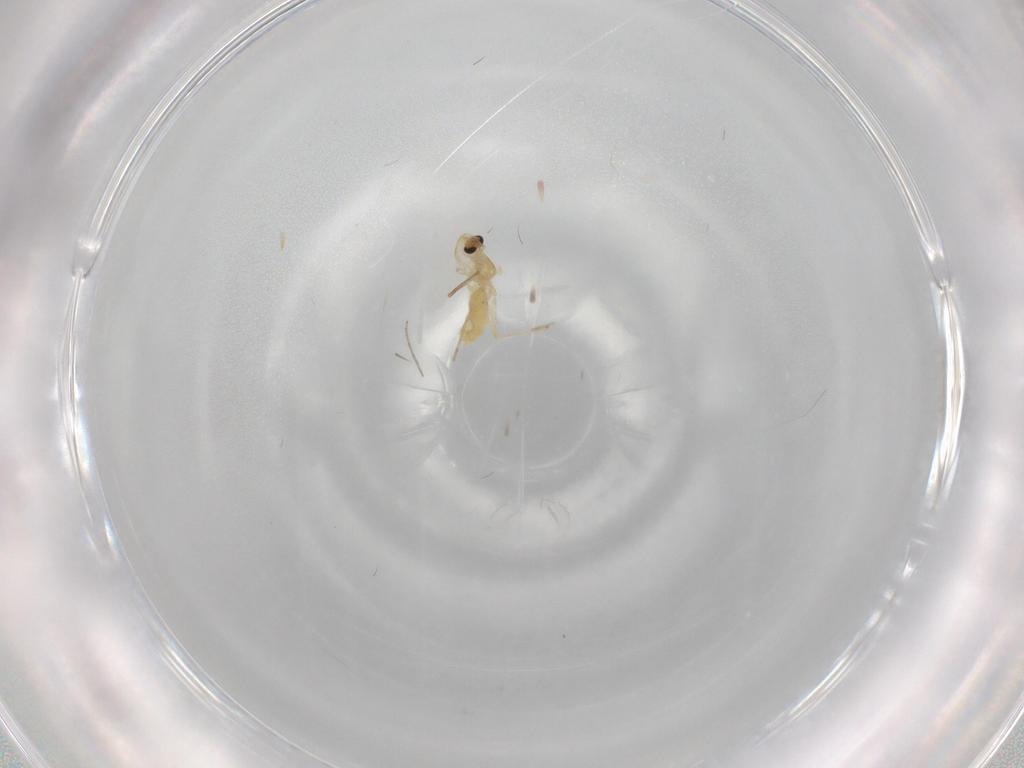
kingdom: Animalia
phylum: Arthropoda
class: Insecta
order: Diptera
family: Chironomidae
